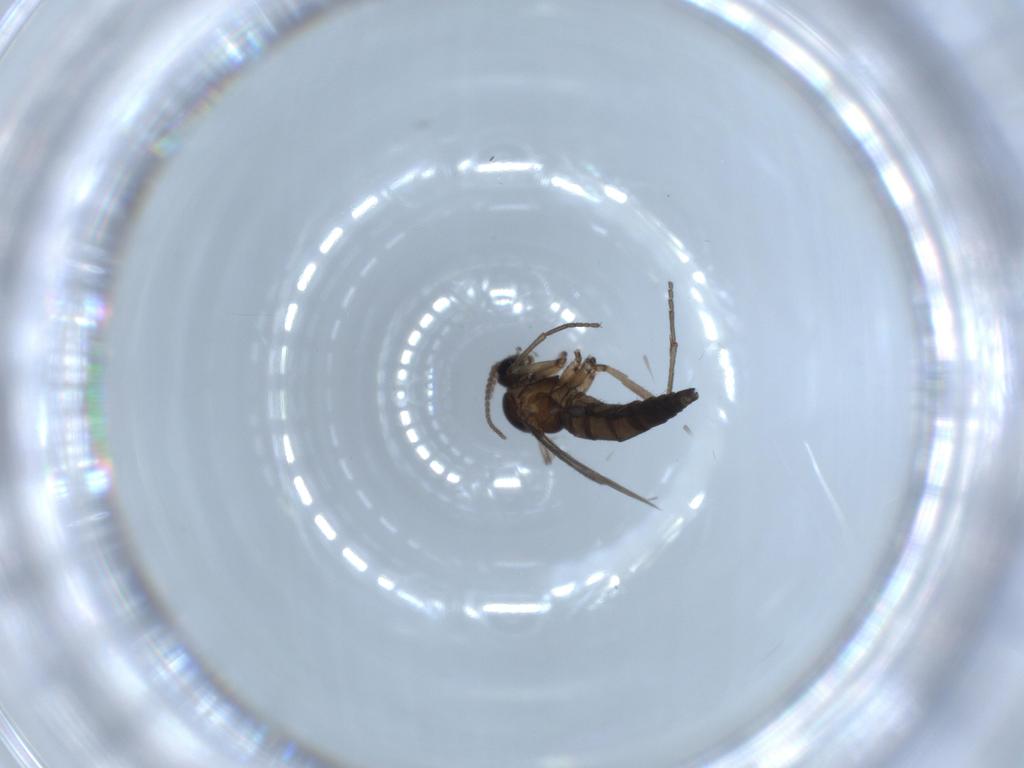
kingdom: Animalia
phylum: Arthropoda
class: Insecta
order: Diptera
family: Sciaridae
